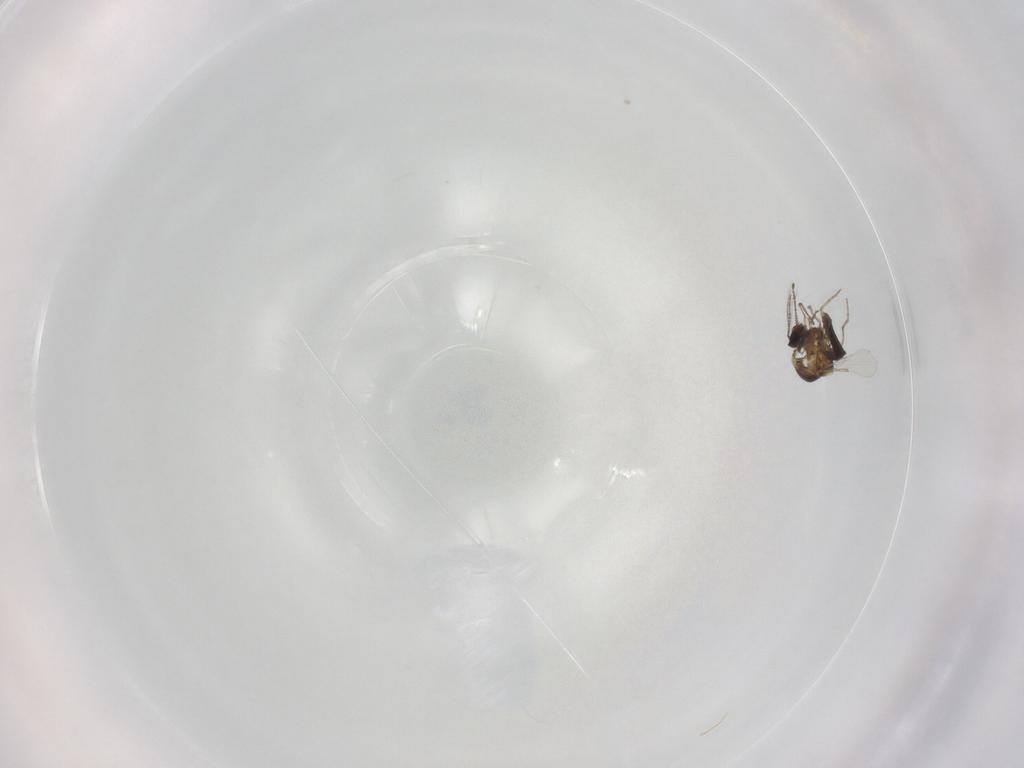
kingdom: Animalia
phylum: Arthropoda
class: Insecta
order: Diptera
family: Ceratopogonidae
